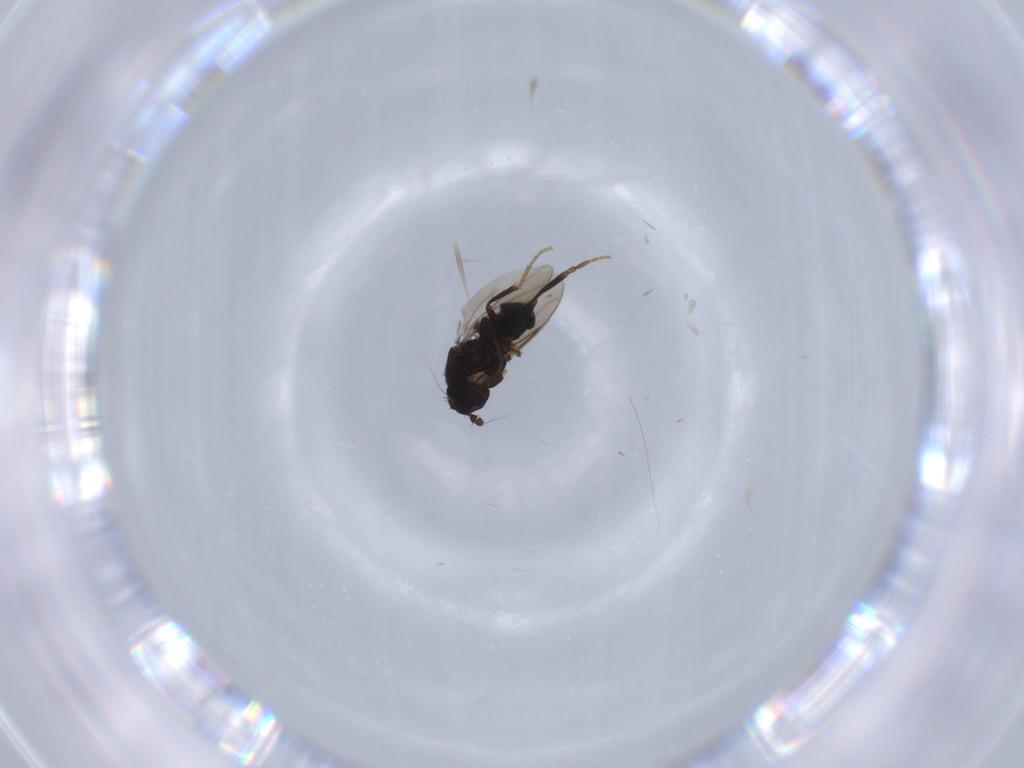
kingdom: Animalia
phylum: Arthropoda
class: Insecta
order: Diptera
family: Sphaeroceridae
